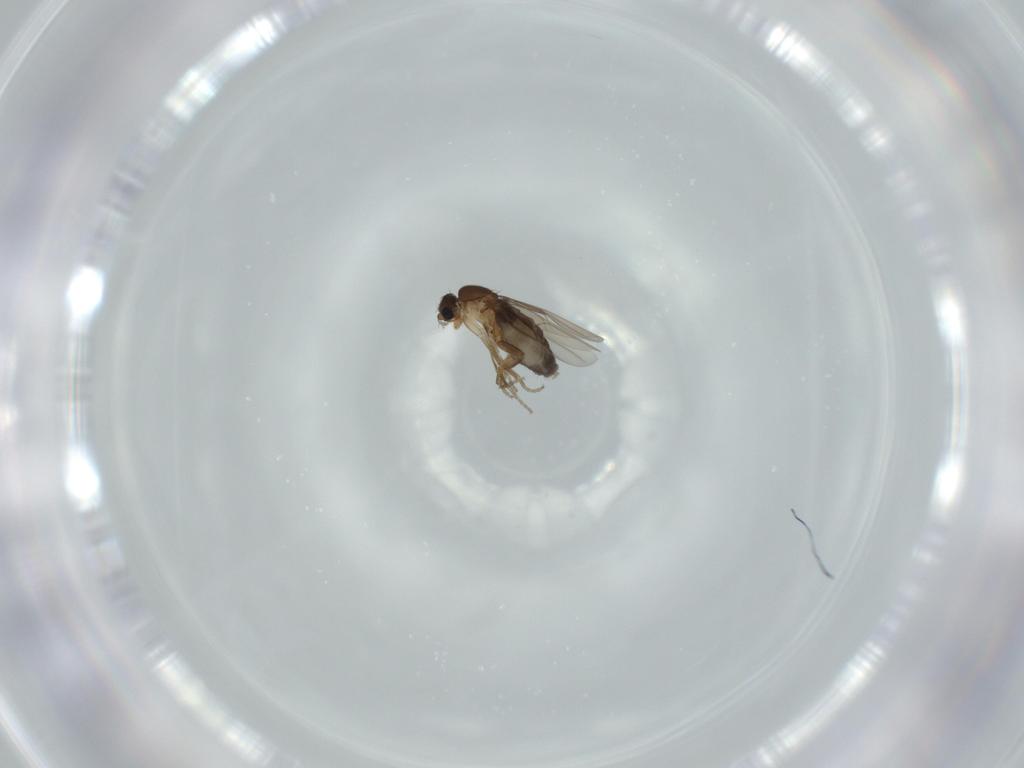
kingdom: Animalia
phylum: Arthropoda
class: Insecta
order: Diptera
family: Phoridae
